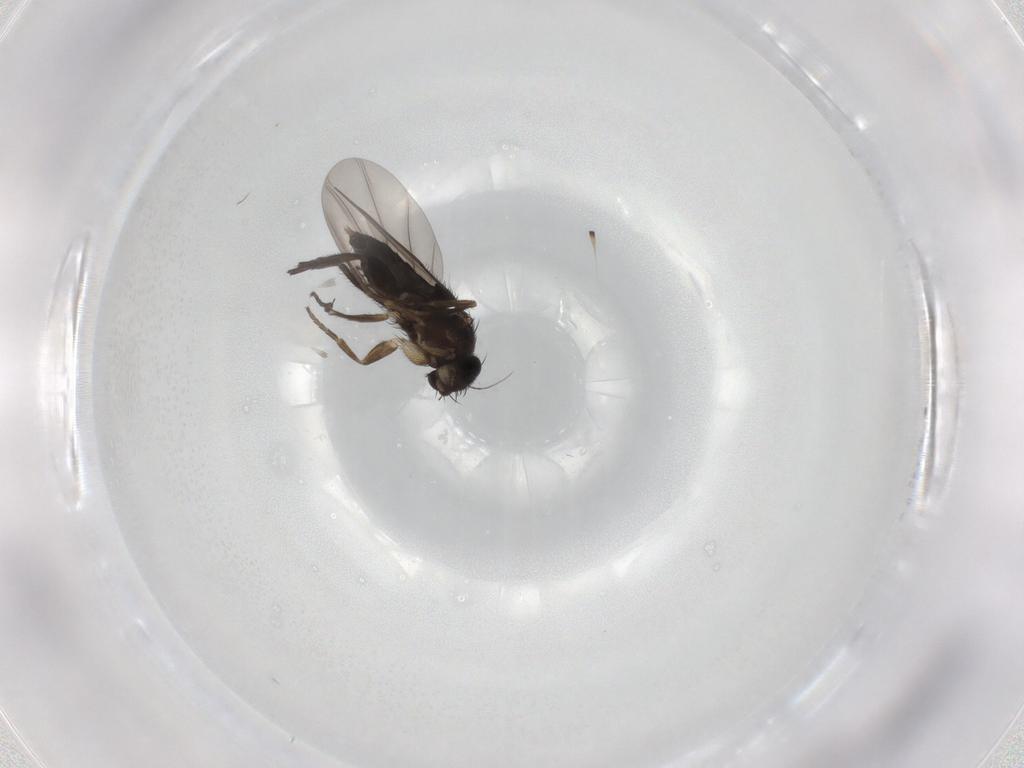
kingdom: Animalia
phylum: Arthropoda
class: Insecta
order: Diptera
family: Phoridae
